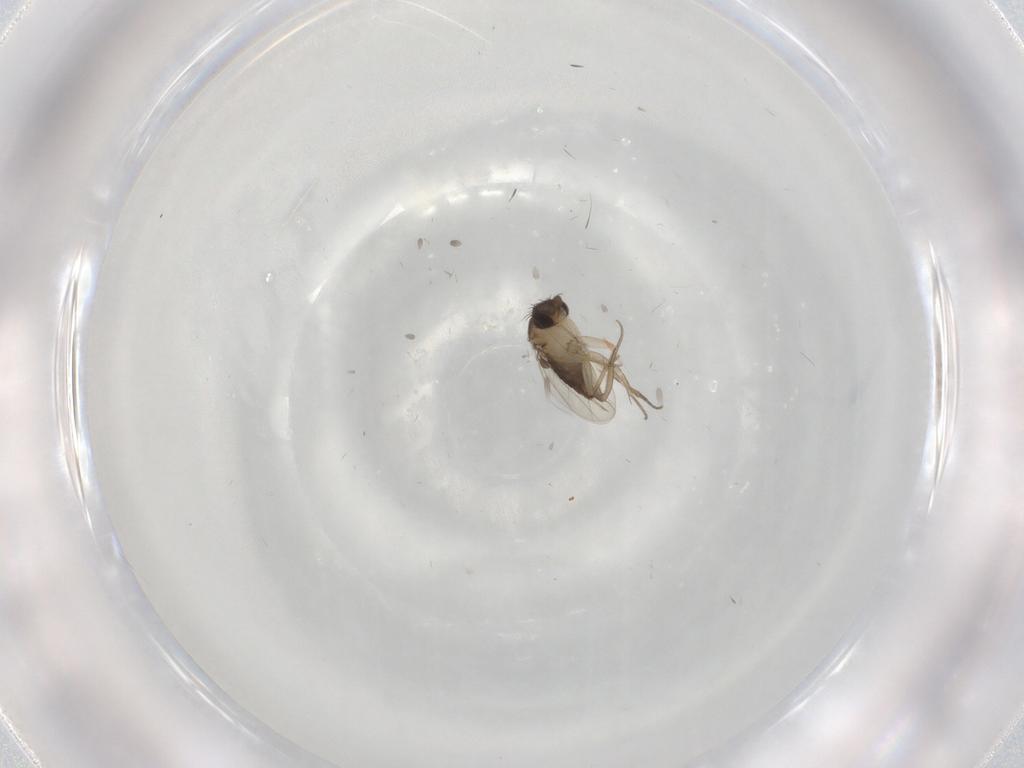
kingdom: Animalia
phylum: Arthropoda
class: Insecta
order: Diptera
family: Phoridae
